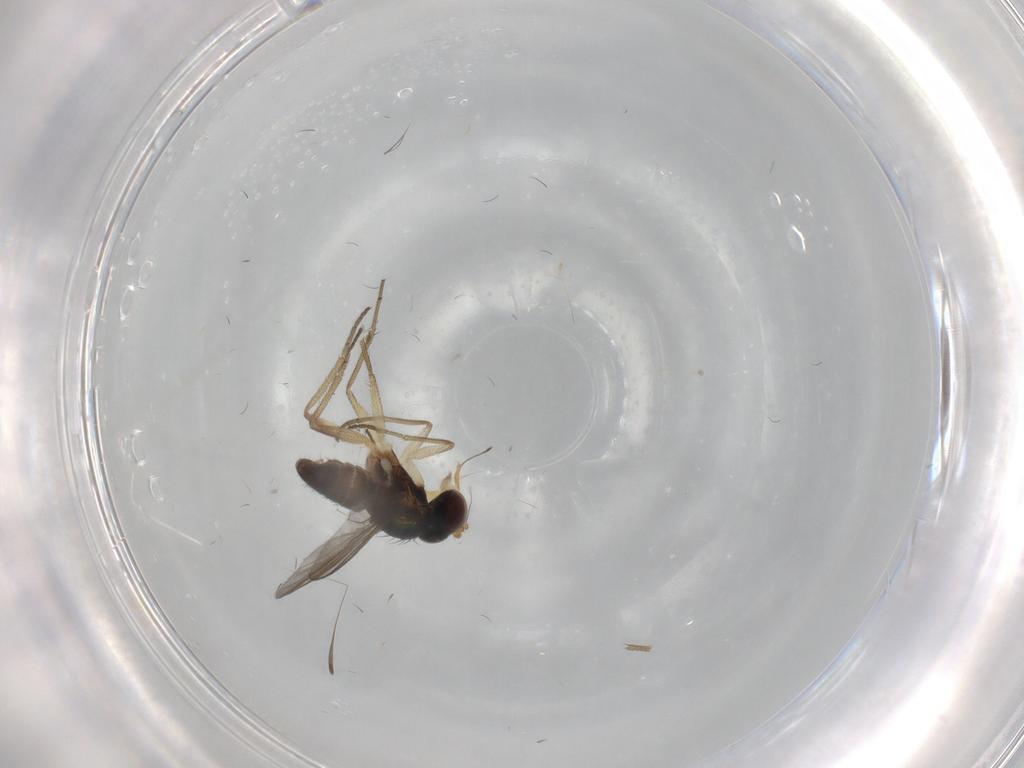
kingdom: Animalia
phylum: Arthropoda
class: Insecta
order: Diptera
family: Dolichopodidae
